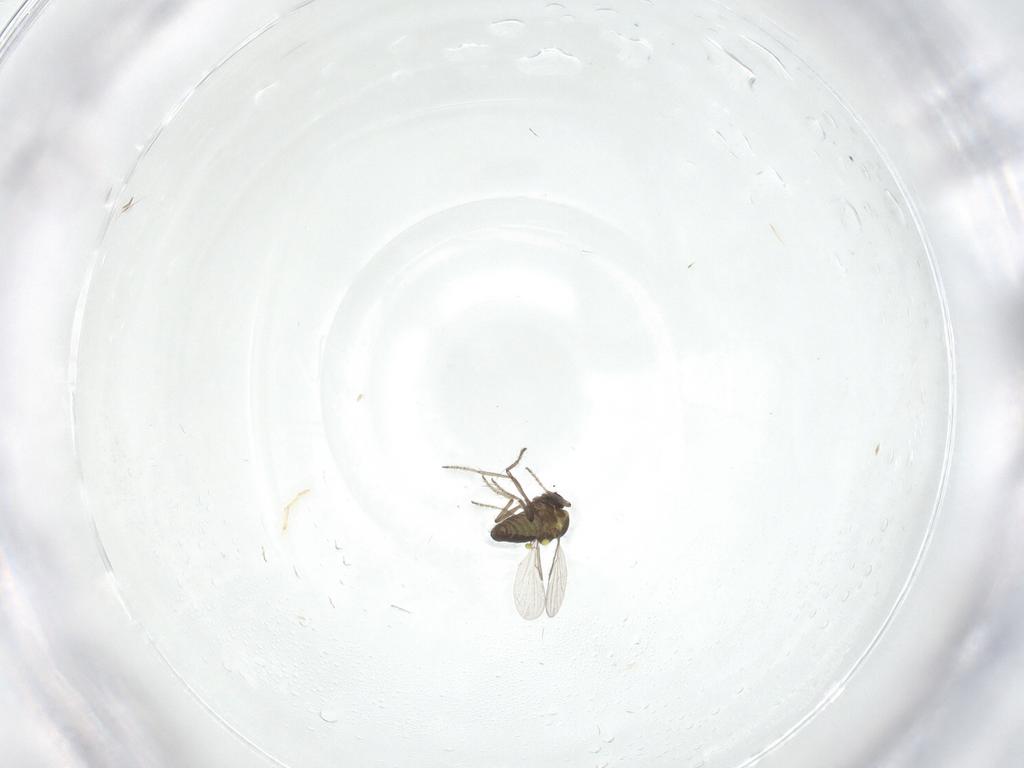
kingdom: Animalia
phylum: Arthropoda
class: Insecta
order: Diptera
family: Ceratopogonidae
